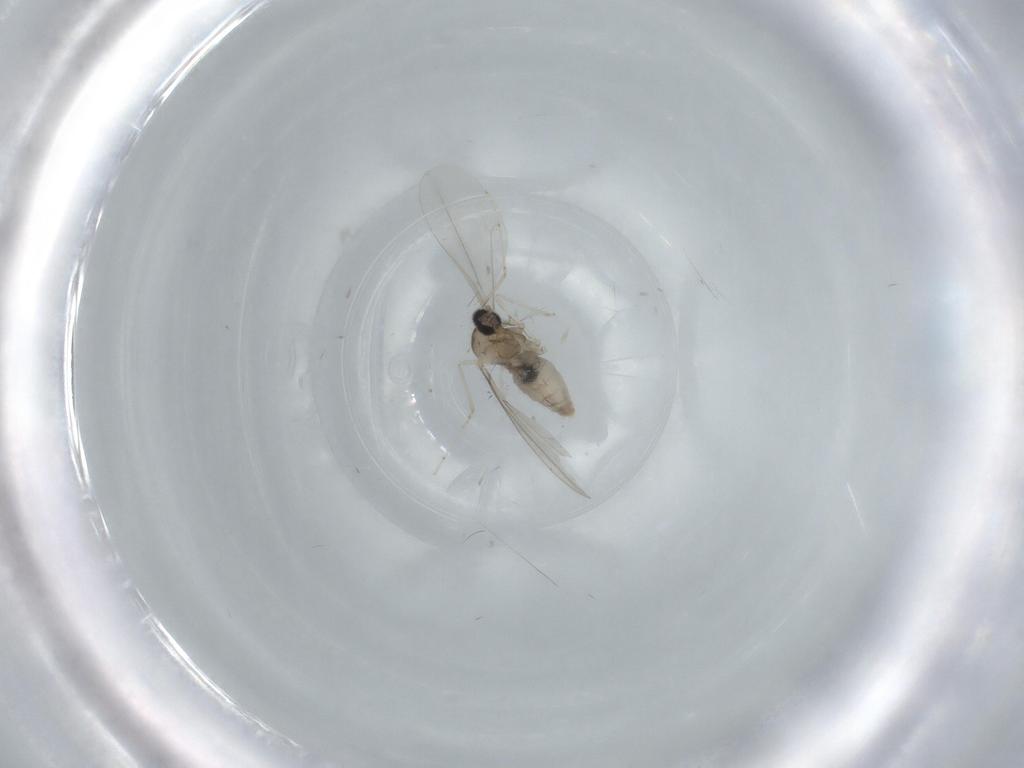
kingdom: Animalia
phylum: Arthropoda
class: Insecta
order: Diptera
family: Cecidomyiidae
